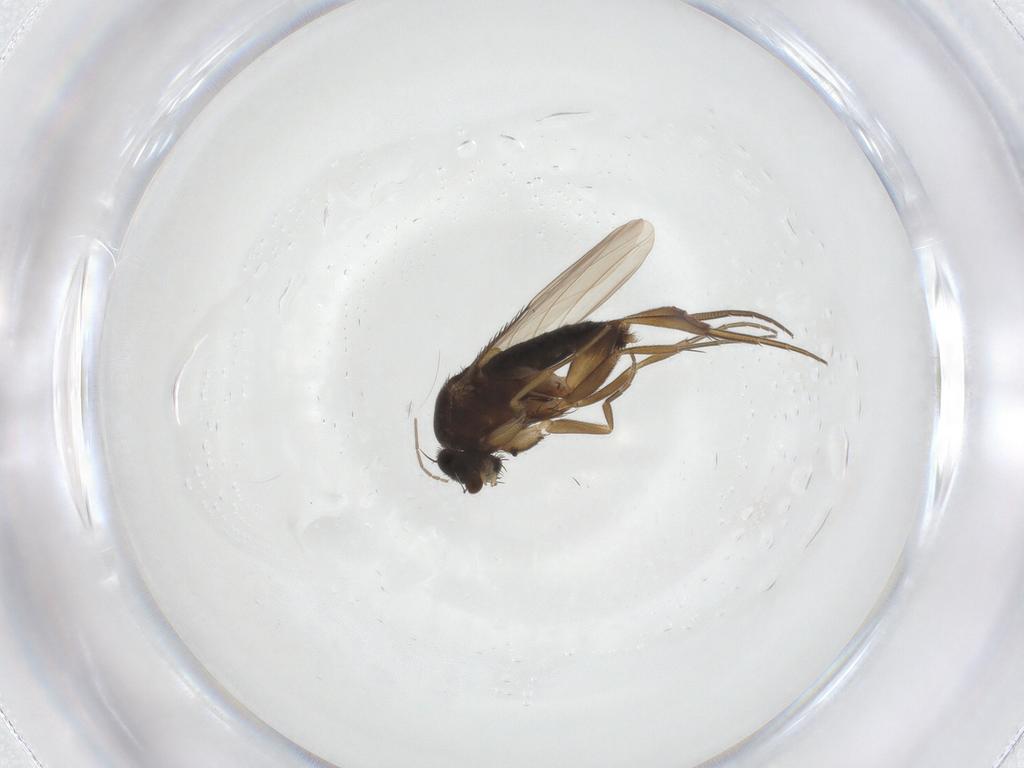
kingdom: Animalia
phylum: Arthropoda
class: Insecta
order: Diptera
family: Phoridae
